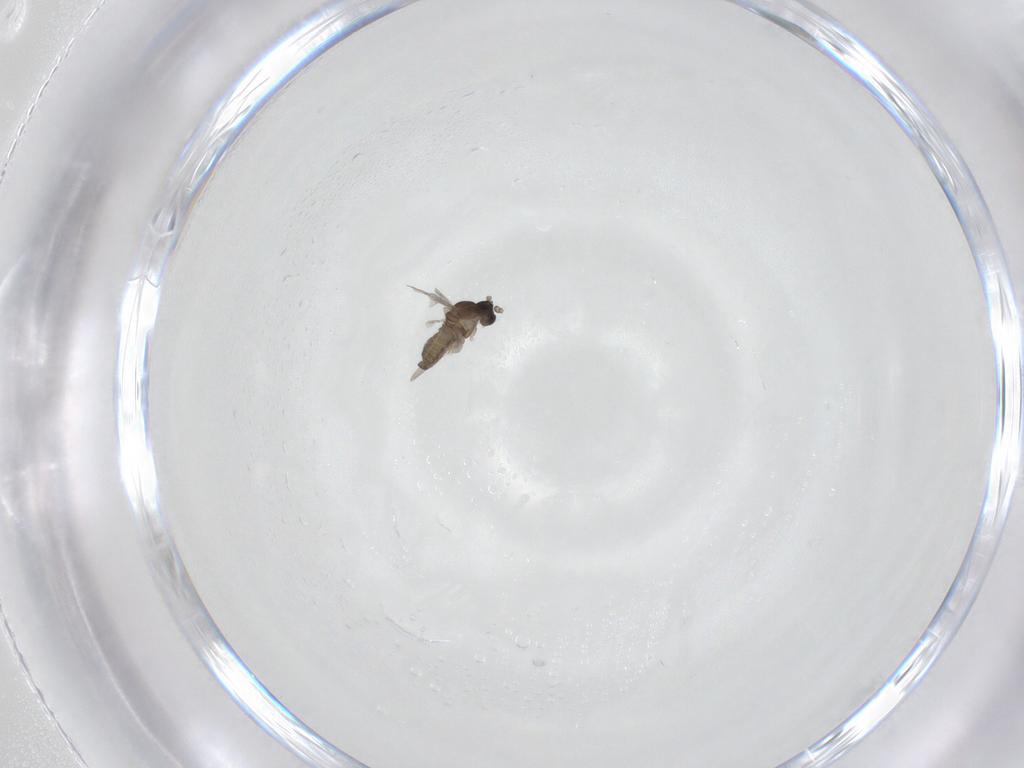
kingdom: Animalia
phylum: Arthropoda
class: Insecta
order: Diptera
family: Empididae
